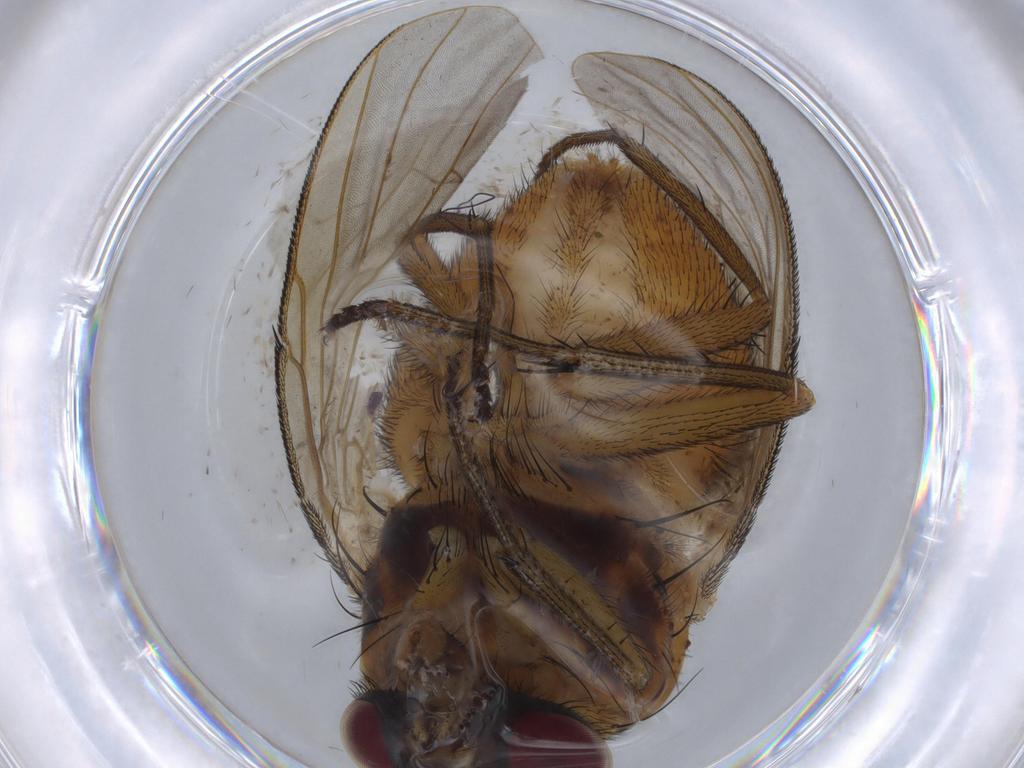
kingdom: Animalia
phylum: Arthropoda
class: Insecta
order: Diptera
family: Muscidae
